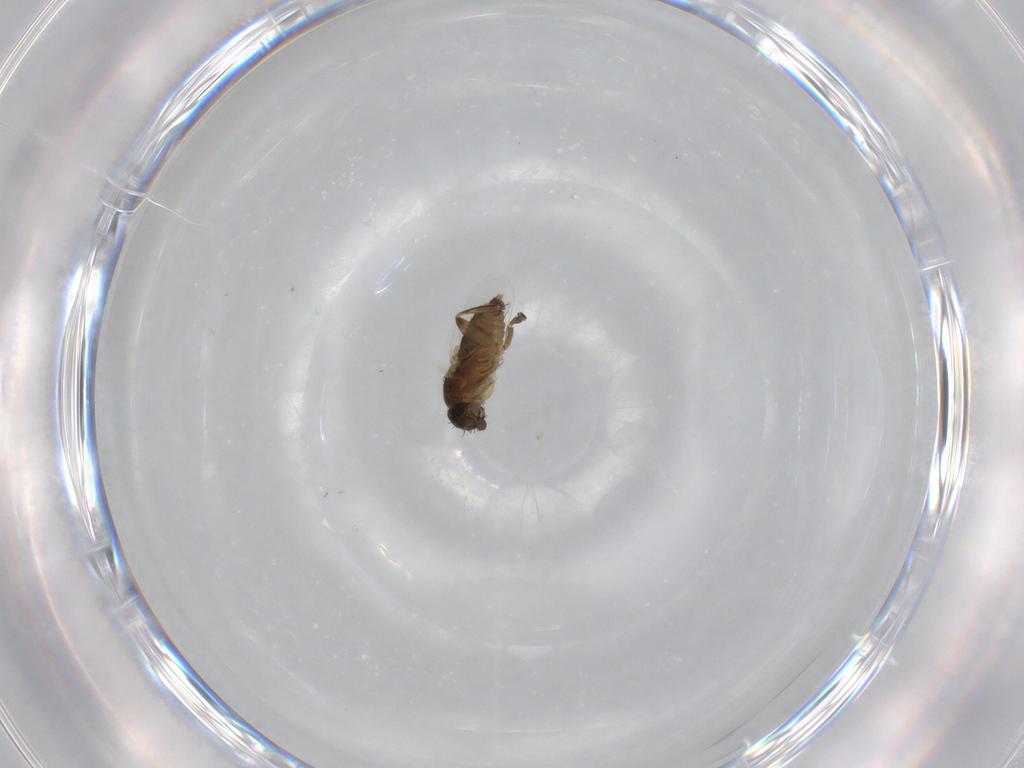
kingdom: Animalia
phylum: Arthropoda
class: Insecta
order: Diptera
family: Phoridae
